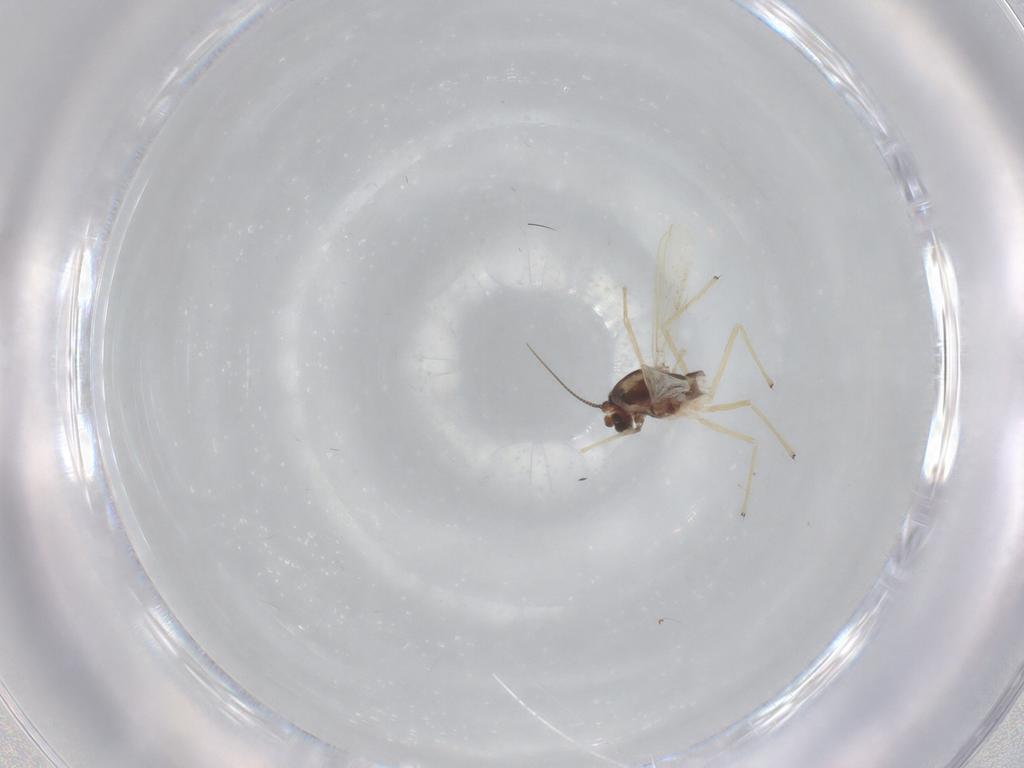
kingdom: Animalia
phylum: Arthropoda
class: Insecta
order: Diptera
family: Chironomidae
